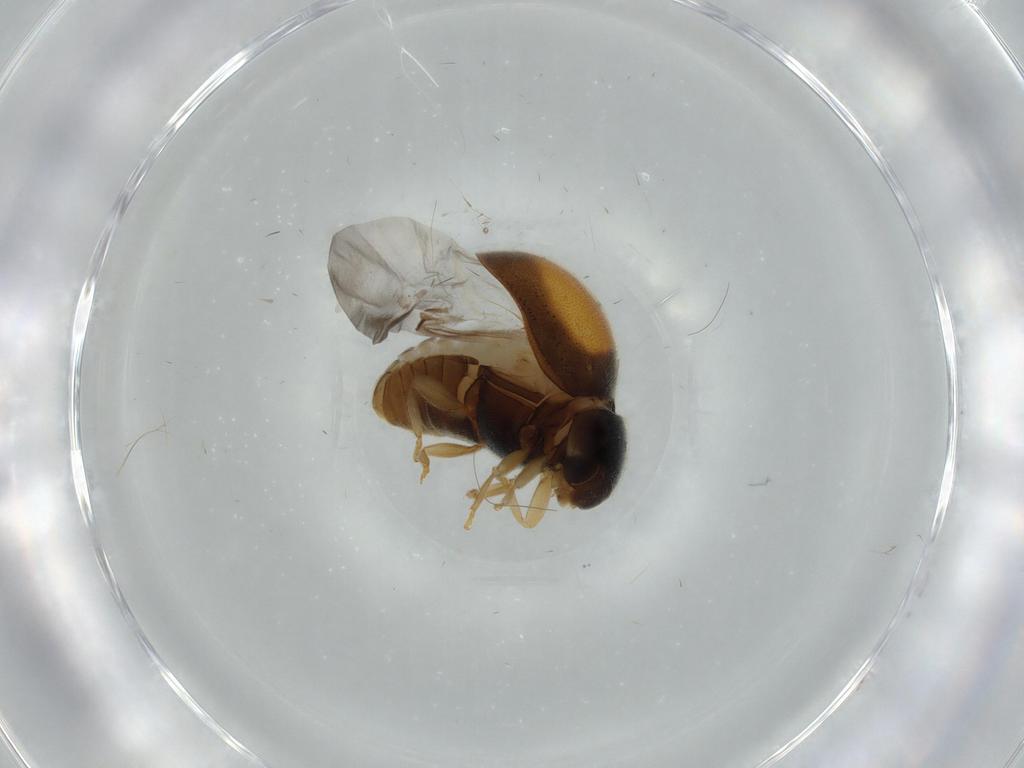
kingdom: Animalia
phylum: Arthropoda
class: Insecta
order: Coleoptera
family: Coccinellidae
